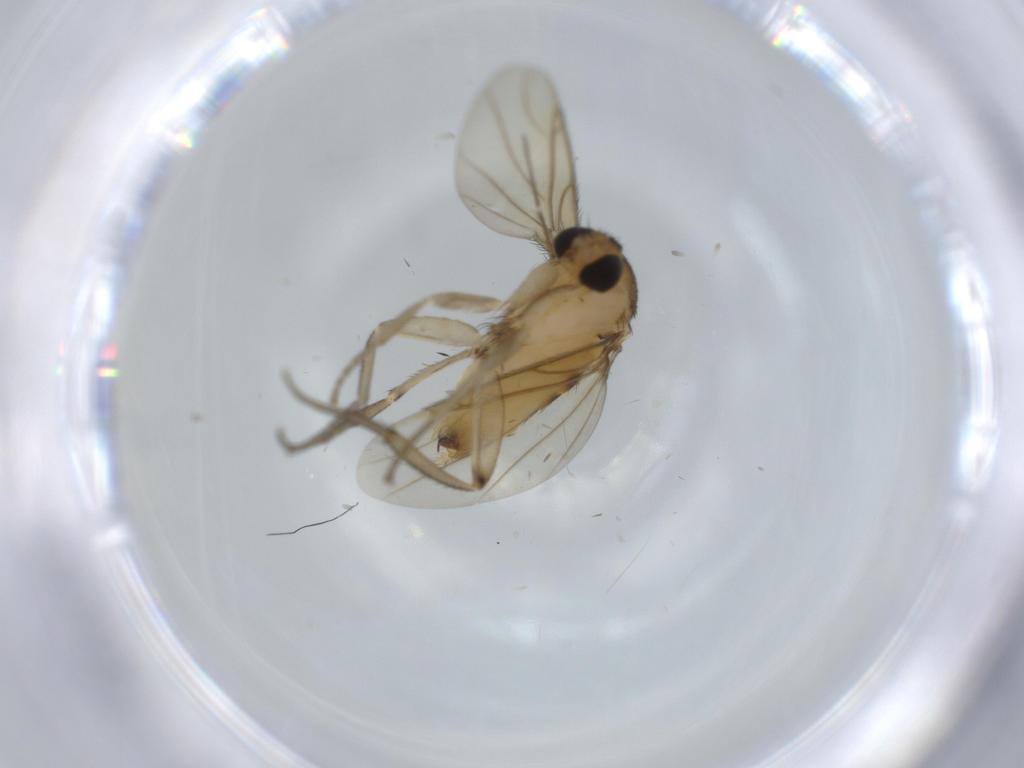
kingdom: Animalia
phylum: Arthropoda
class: Insecta
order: Diptera
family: Phoridae
